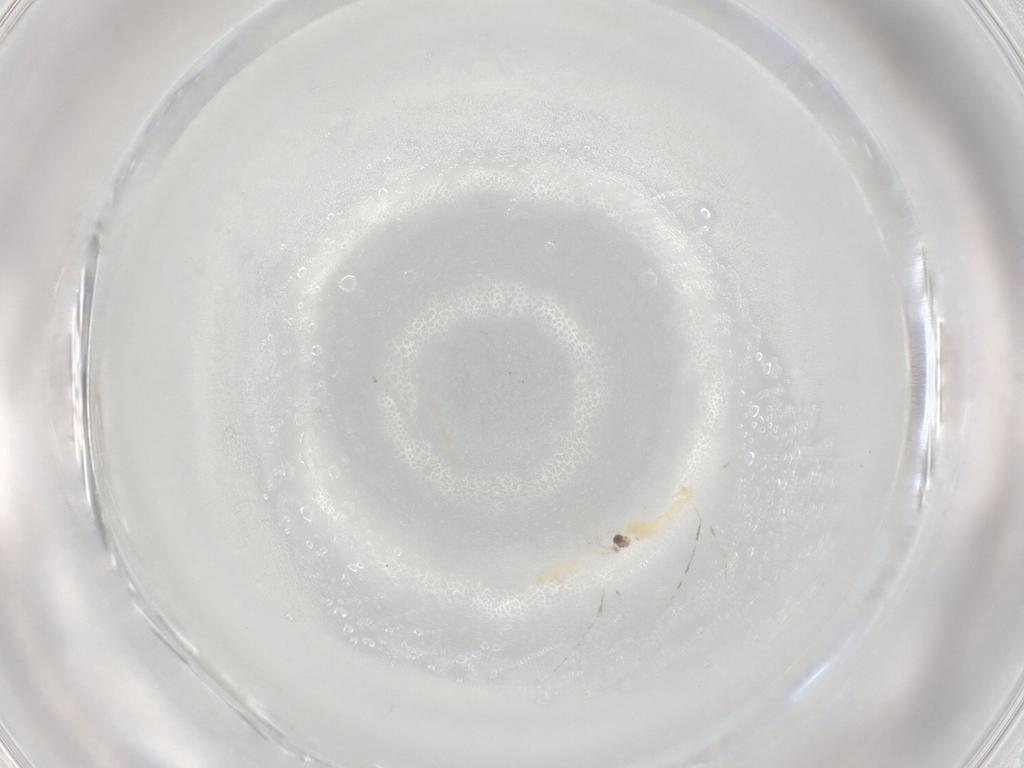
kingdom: Animalia
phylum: Arthropoda
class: Insecta
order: Diptera
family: Cecidomyiidae
